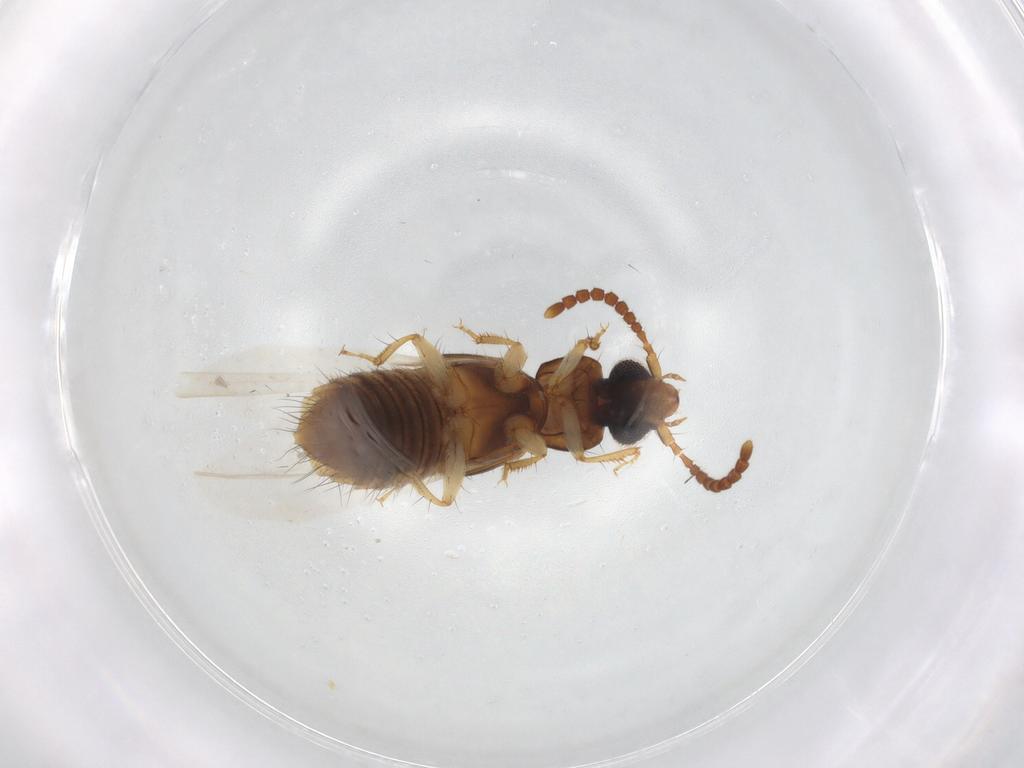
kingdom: Animalia
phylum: Arthropoda
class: Insecta
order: Coleoptera
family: Staphylinidae
